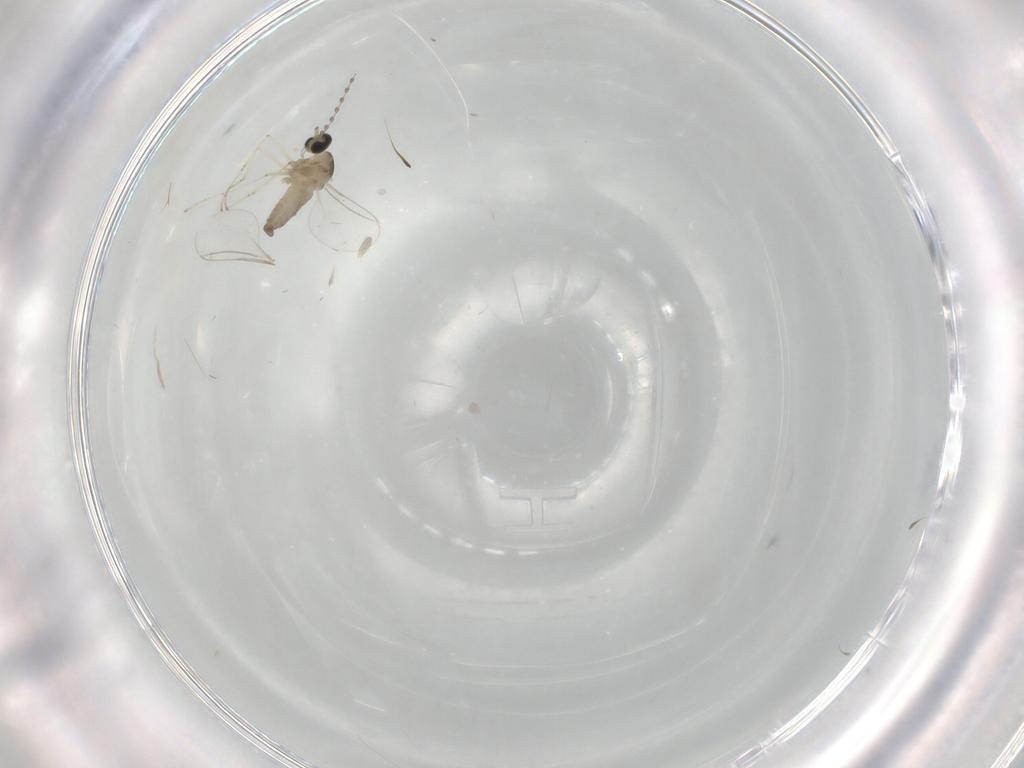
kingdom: Animalia
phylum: Arthropoda
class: Insecta
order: Diptera
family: Cecidomyiidae
